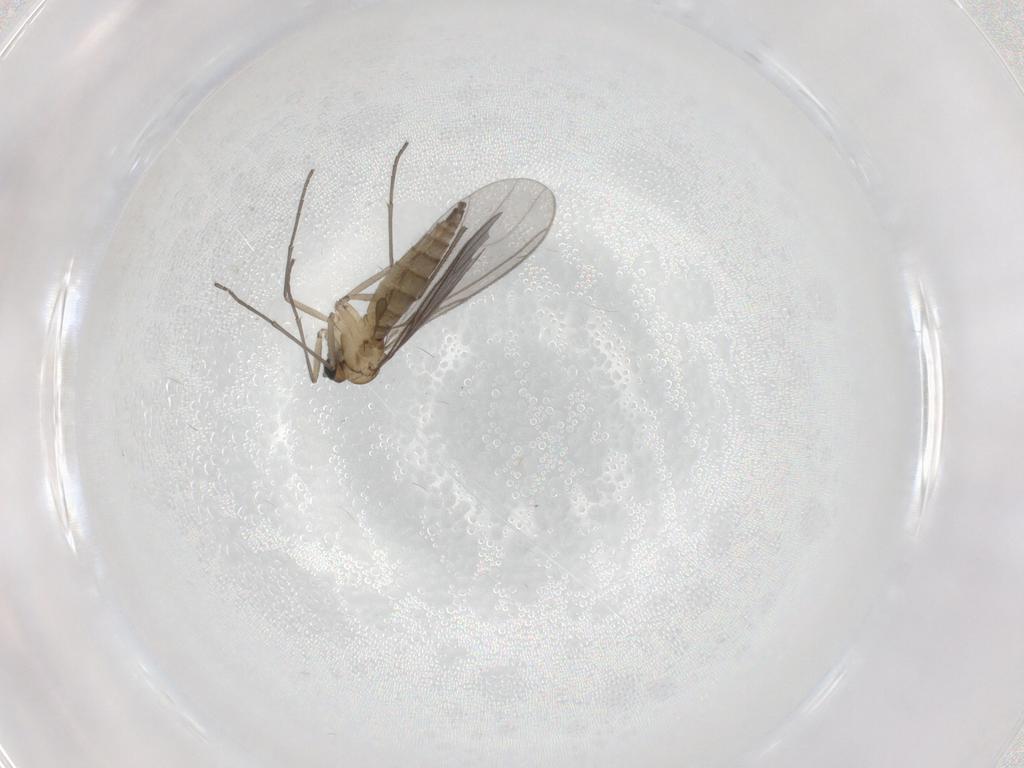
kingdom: Animalia
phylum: Arthropoda
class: Insecta
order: Diptera
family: Sciaridae
